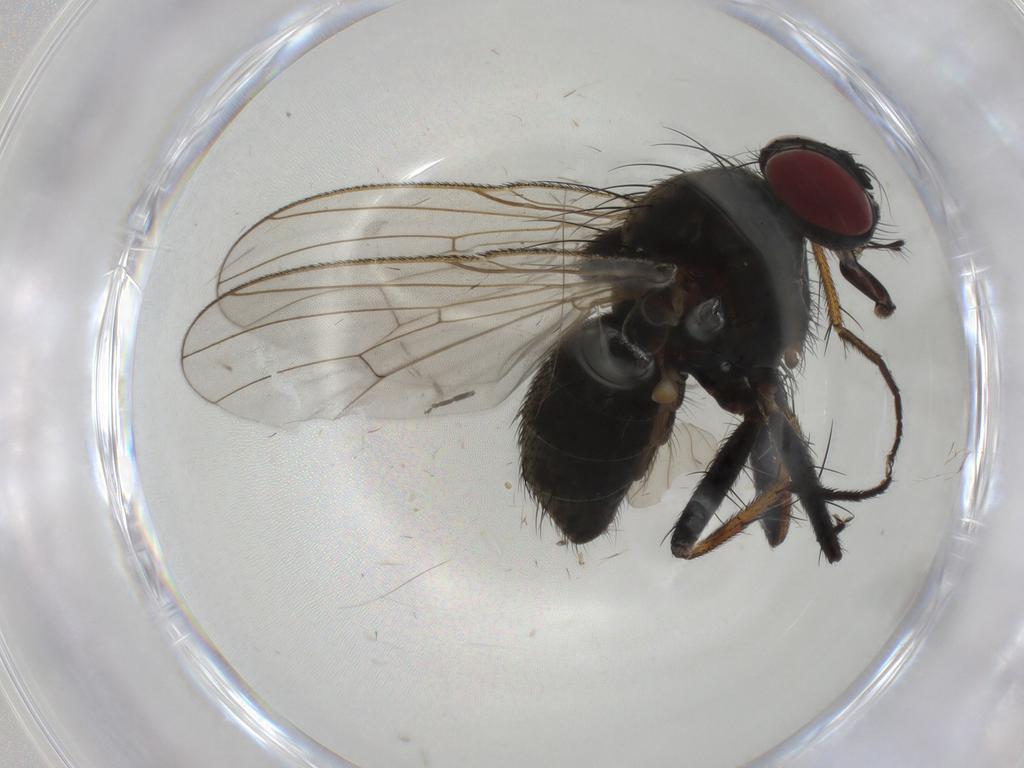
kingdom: Animalia
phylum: Arthropoda
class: Insecta
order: Diptera
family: Muscidae
